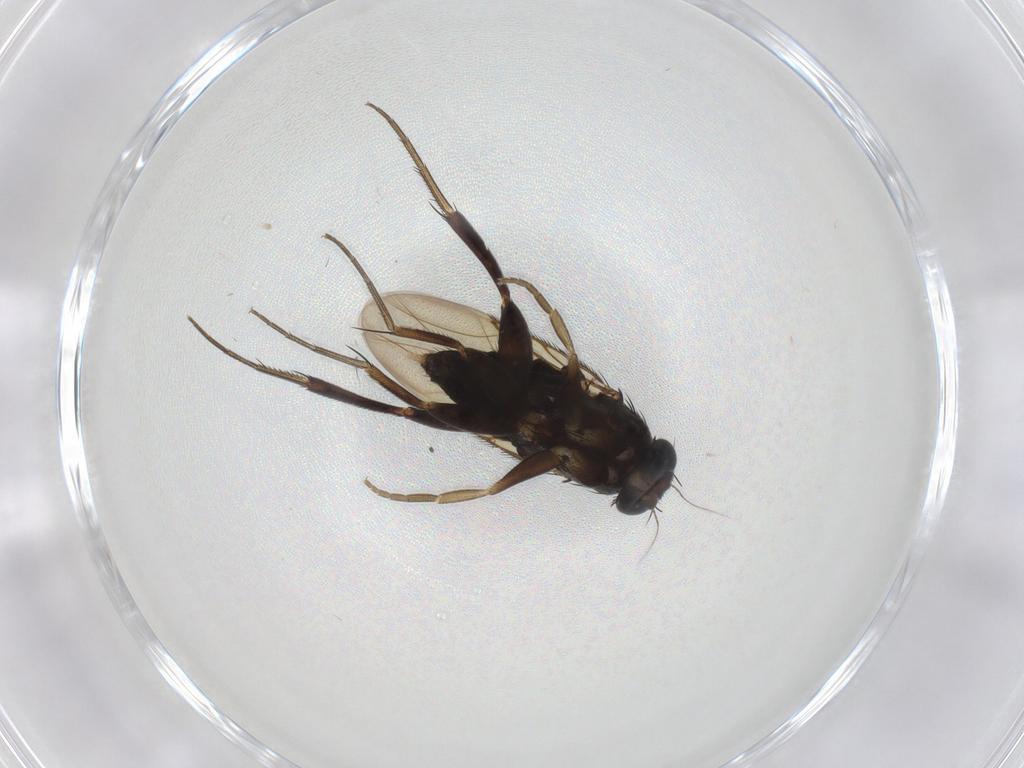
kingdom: Animalia
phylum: Arthropoda
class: Insecta
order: Diptera
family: Phoridae
